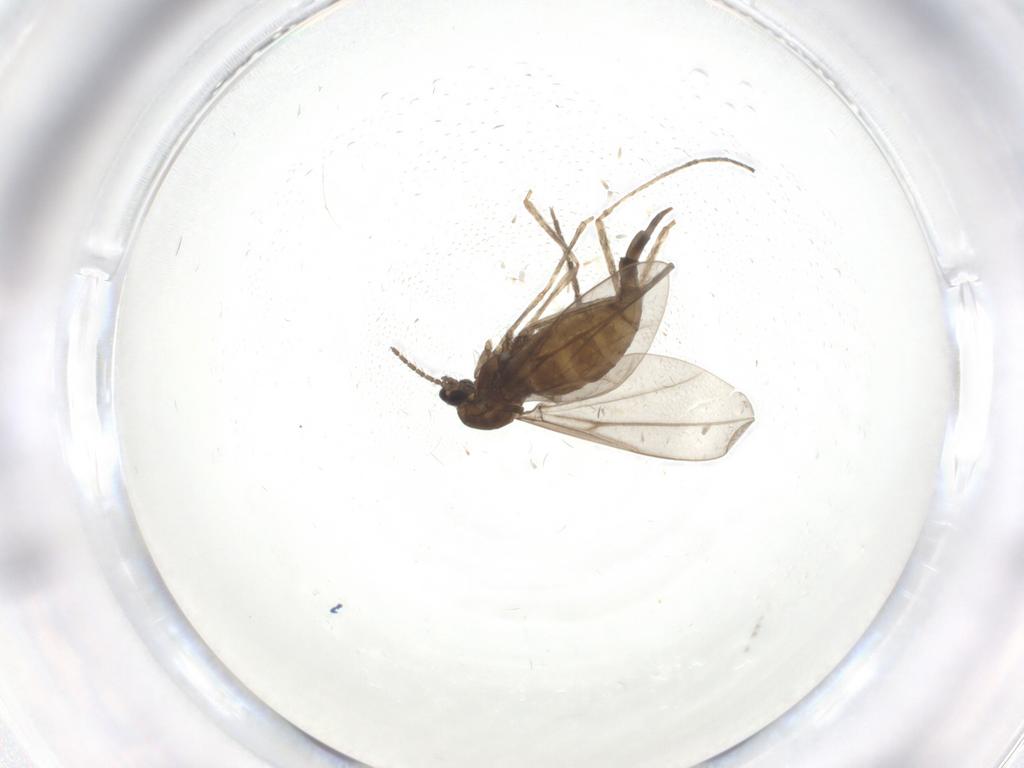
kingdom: Animalia
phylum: Arthropoda
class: Insecta
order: Diptera
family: Cecidomyiidae
